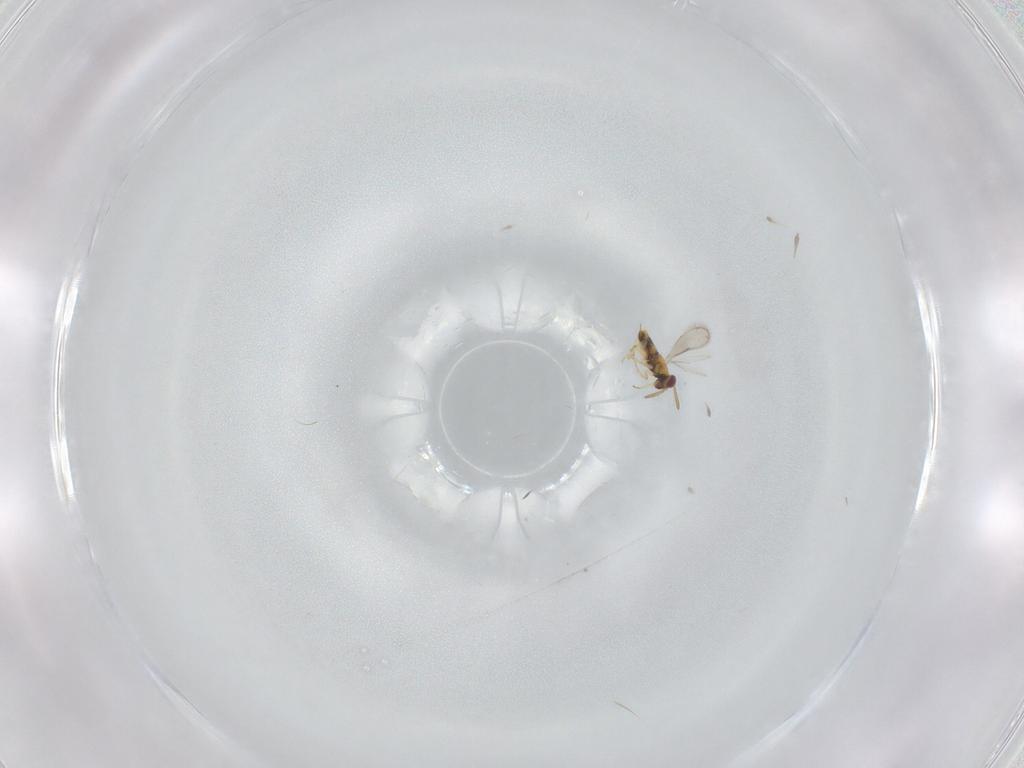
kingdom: Animalia
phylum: Arthropoda
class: Insecta
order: Hymenoptera
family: Aphelinidae
